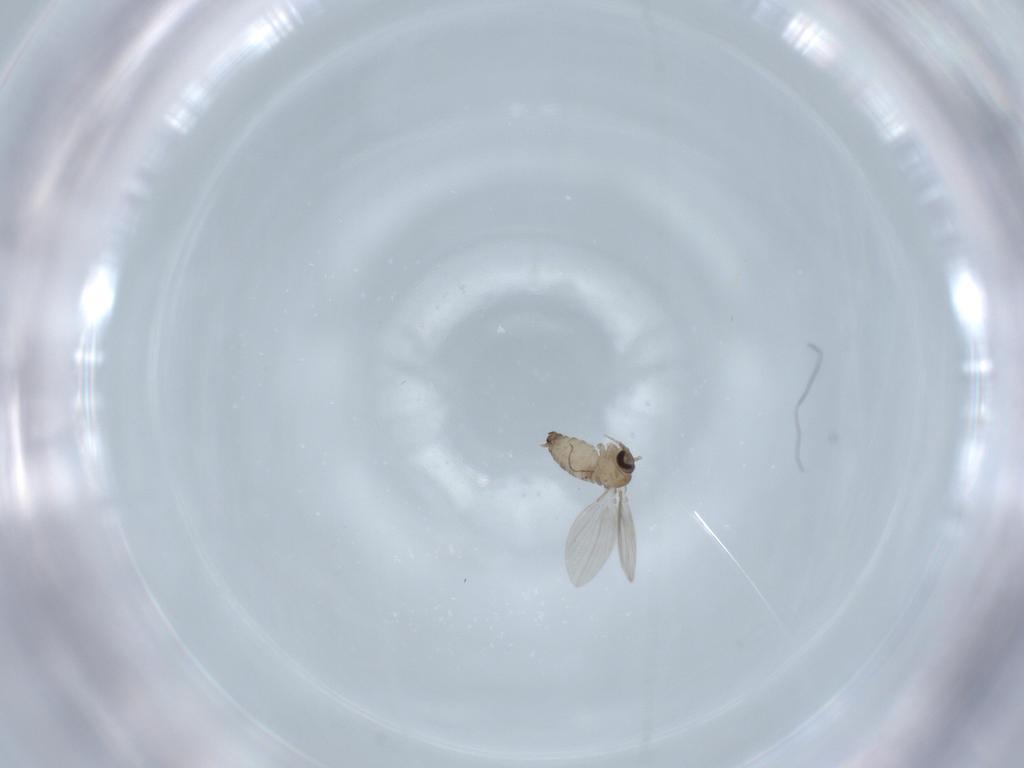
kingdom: Animalia
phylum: Arthropoda
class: Insecta
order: Diptera
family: Psychodidae
